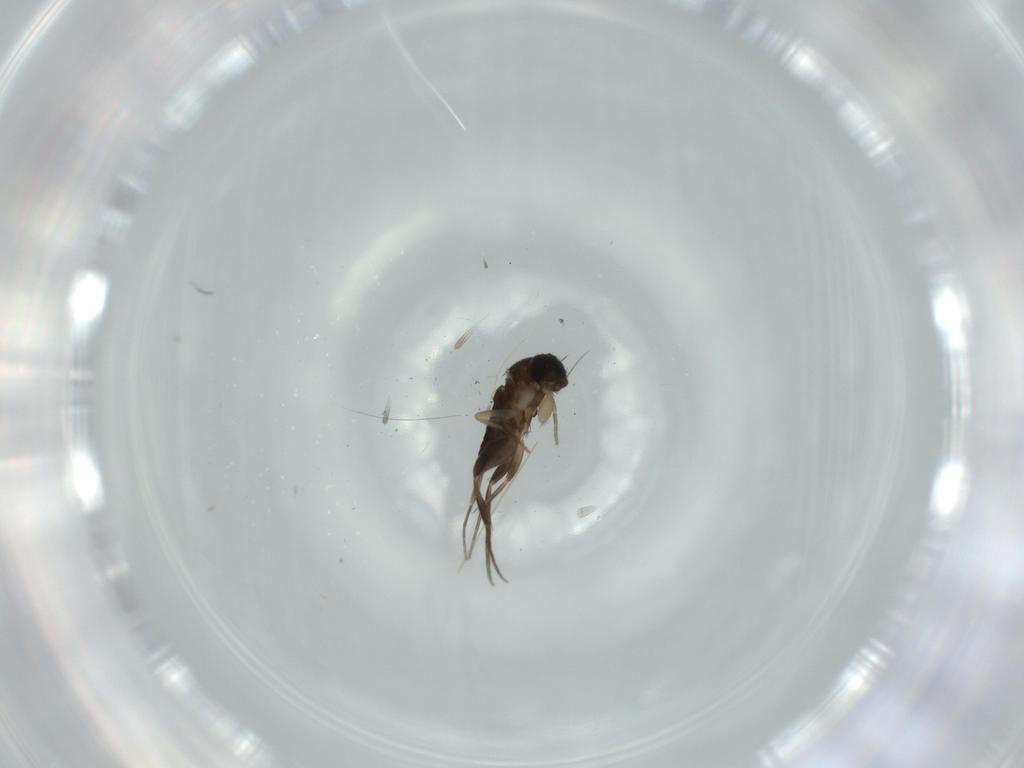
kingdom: Animalia
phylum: Arthropoda
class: Insecta
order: Diptera
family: Phoridae
